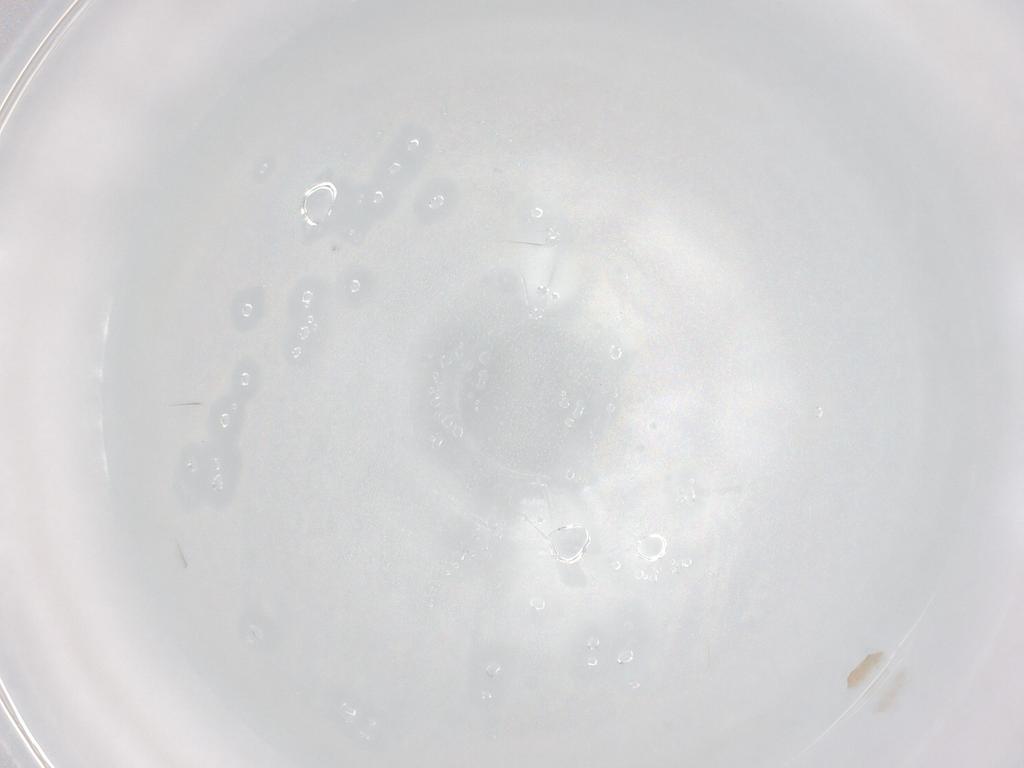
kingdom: Animalia
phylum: Arthropoda
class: Arachnida
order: Trombidiformes
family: Eupodidae
